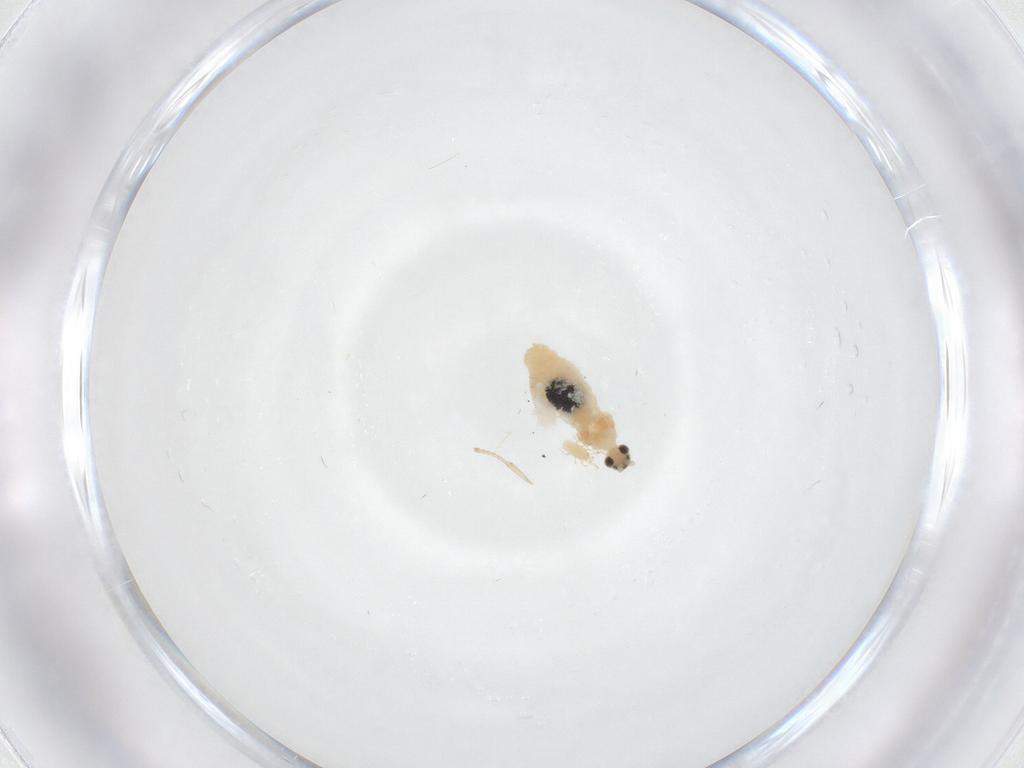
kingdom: Animalia
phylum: Arthropoda
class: Insecta
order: Diptera
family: Cecidomyiidae
